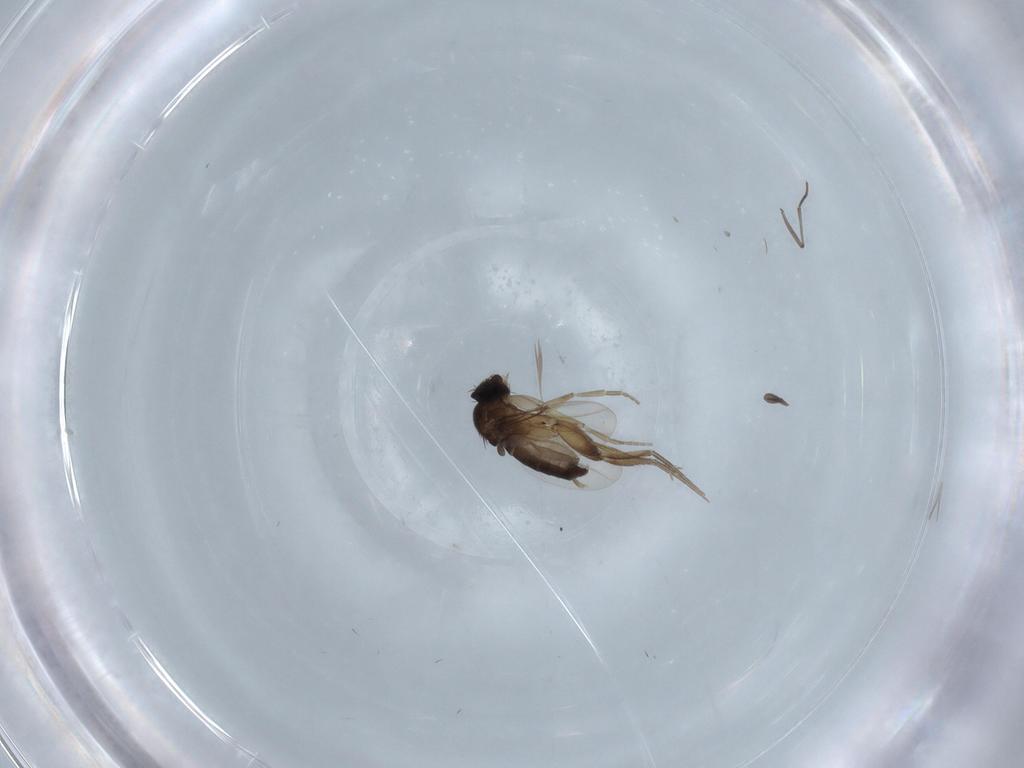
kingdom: Animalia
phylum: Arthropoda
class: Insecta
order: Diptera
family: Phoridae
